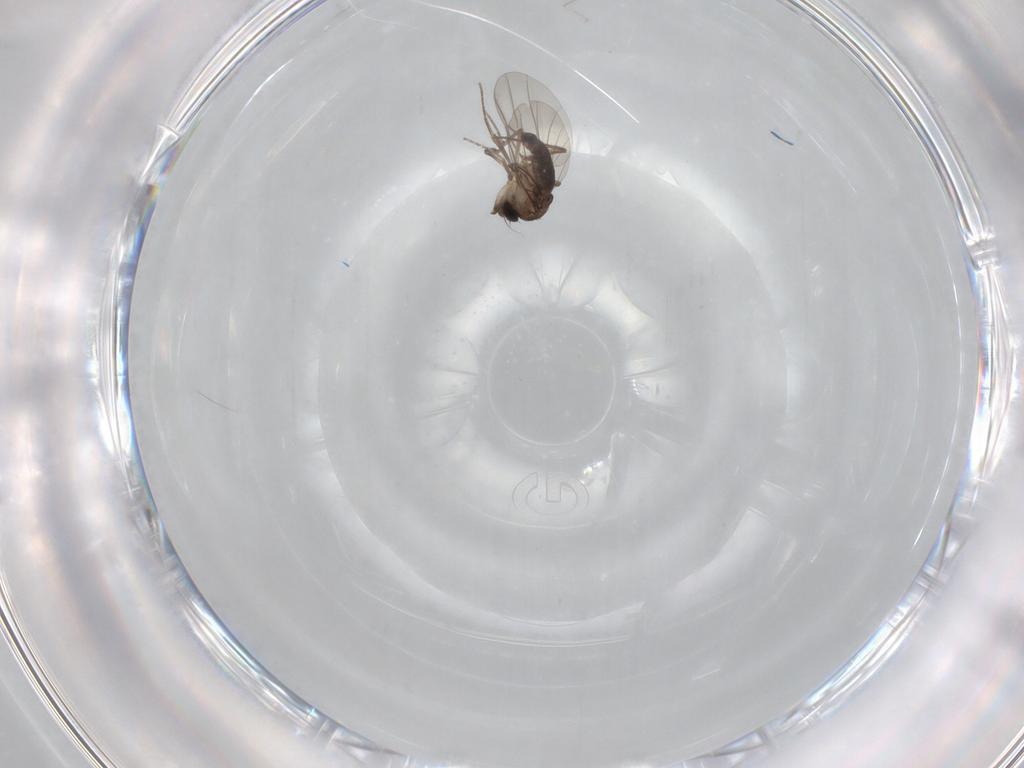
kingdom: Animalia
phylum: Arthropoda
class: Insecta
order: Diptera
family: Phoridae
